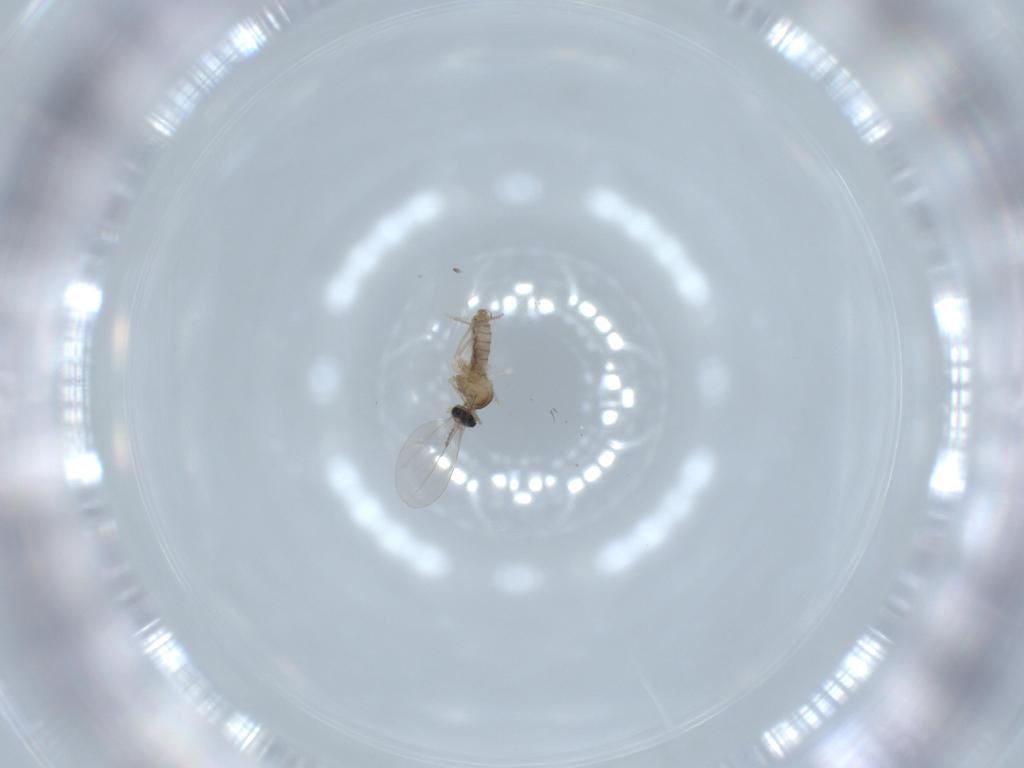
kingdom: Animalia
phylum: Arthropoda
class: Insecta
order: Diptera
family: Cecidomyiidae
